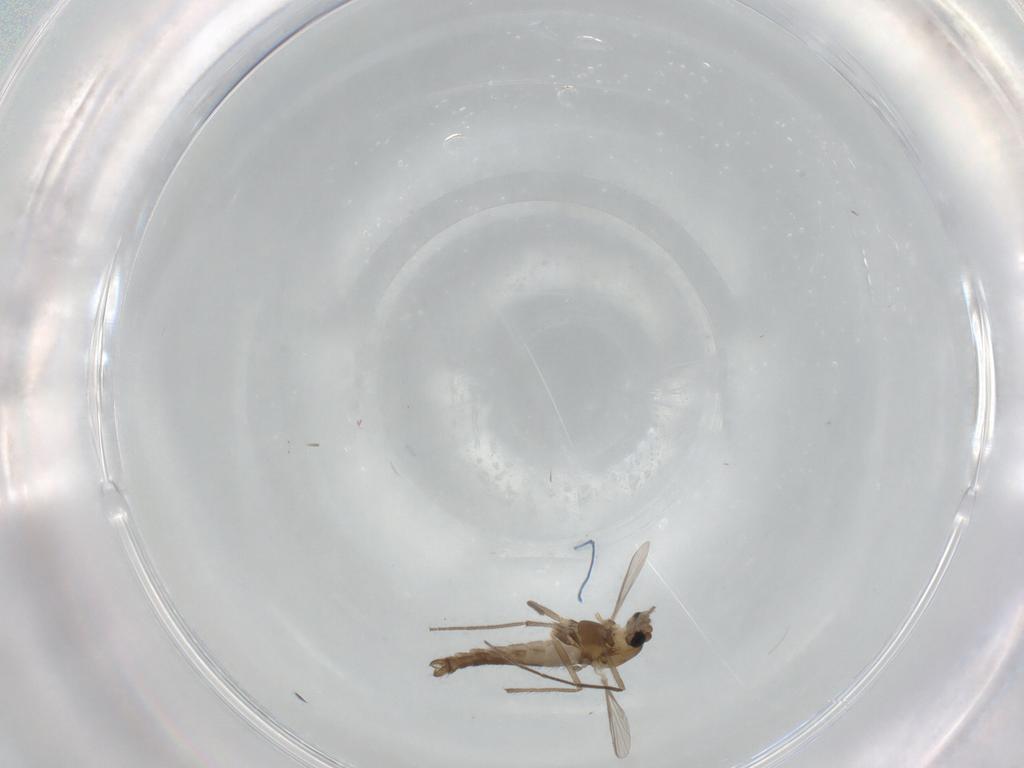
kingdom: Animalia
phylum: Arthropoda
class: Insecta
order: Diptera
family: Chironomidae
